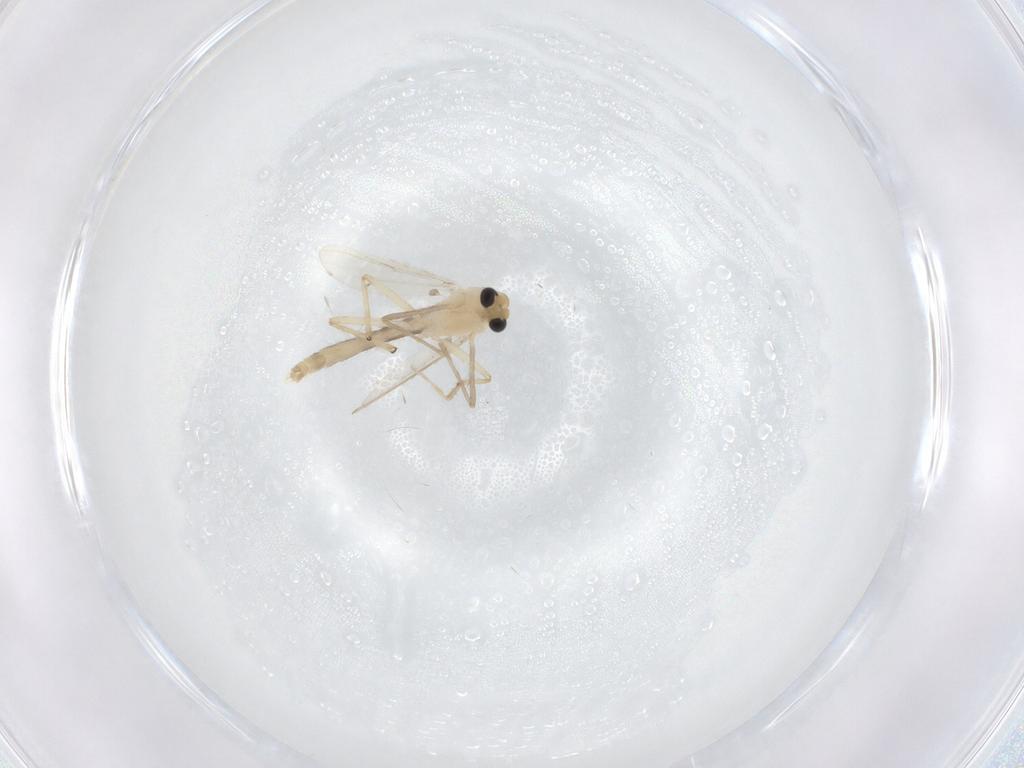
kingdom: Animalia
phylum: Arthropoda
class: Insecta
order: Diptera
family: Chironomidae
